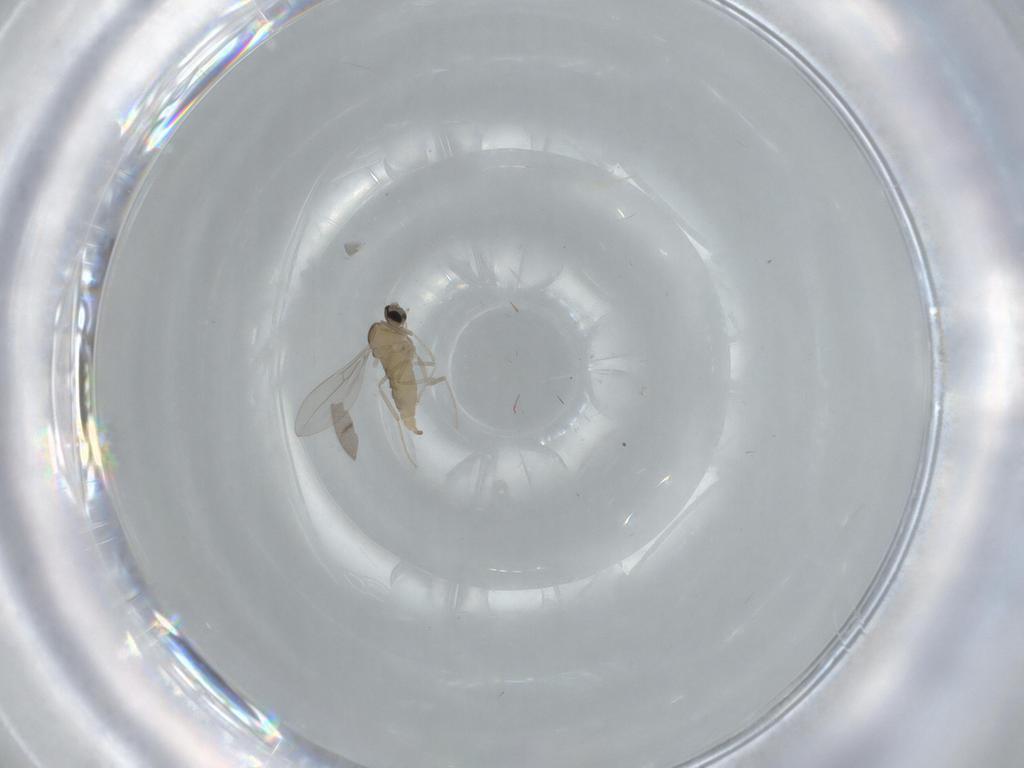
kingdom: Animalia
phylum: Arthropoda
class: Insecta
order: Diptera
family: Cecidomyiidae
